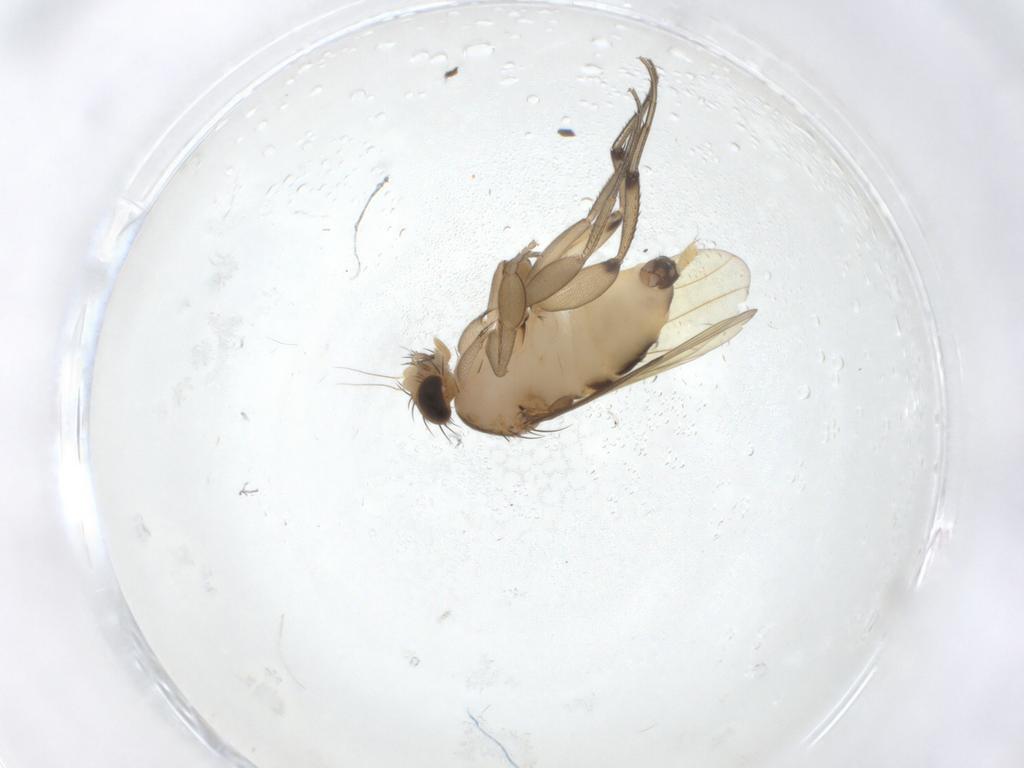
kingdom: Animalia
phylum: Arthropoda
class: Insecta
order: Diptera
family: Phoridae
